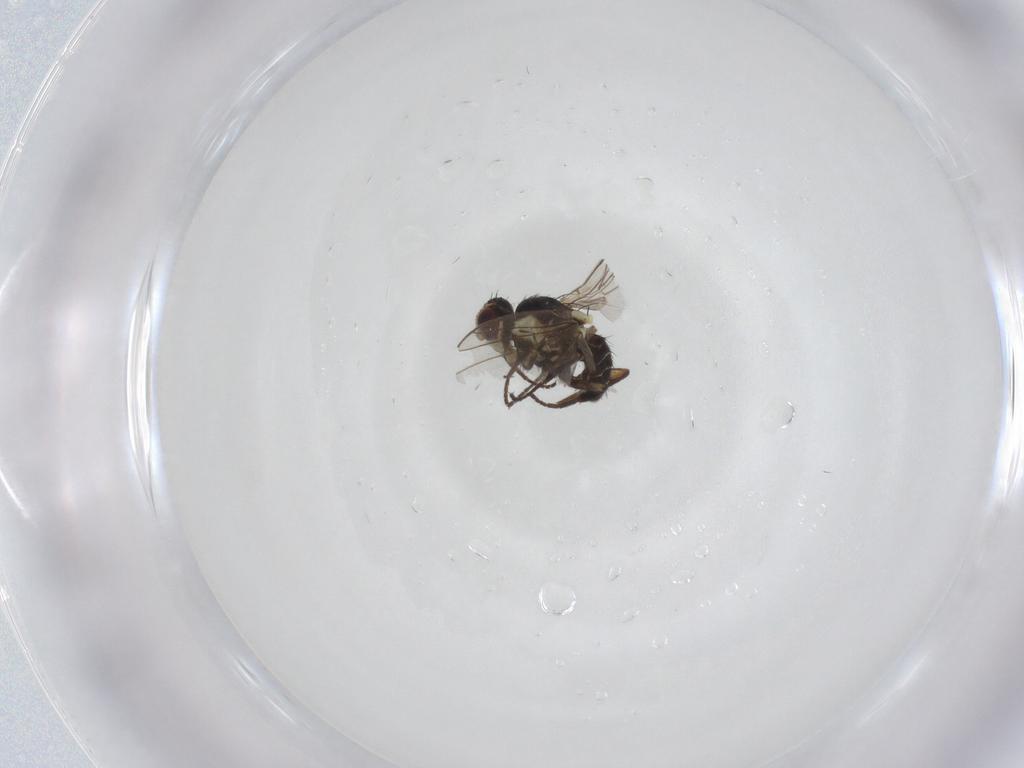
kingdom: Animalia
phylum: Arthropoda
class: Insecta
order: Diptera
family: Agromyzidae
